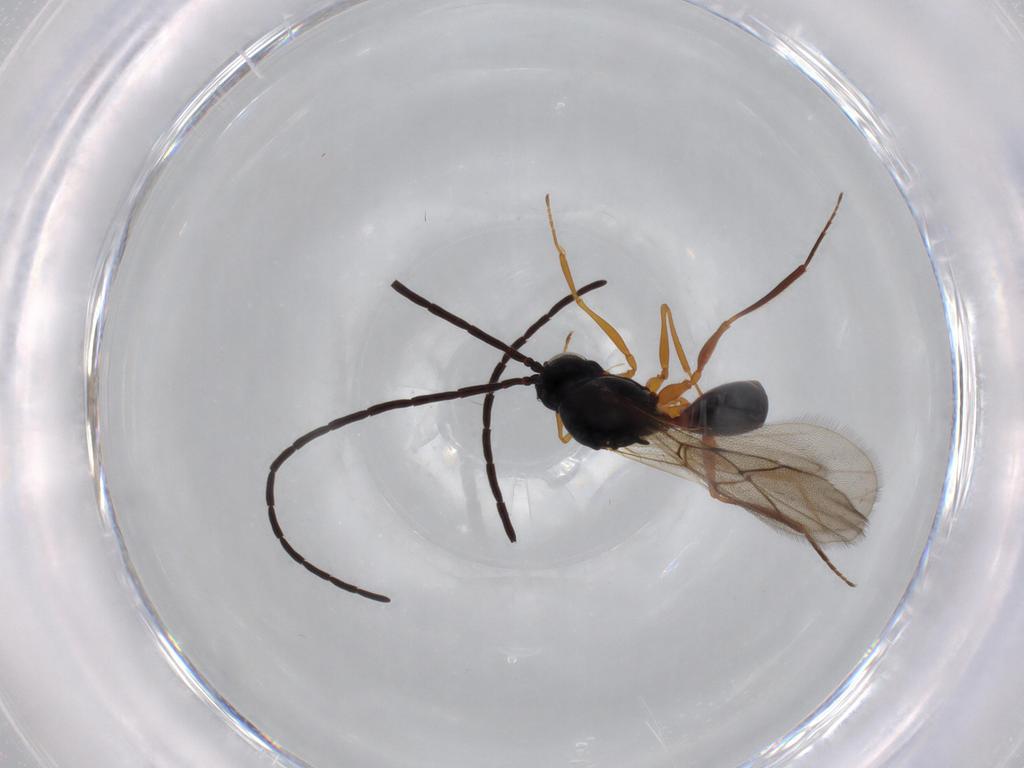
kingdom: Animalia
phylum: Arthropoda
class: Insecta
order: Hymenoptera
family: Figitidae
